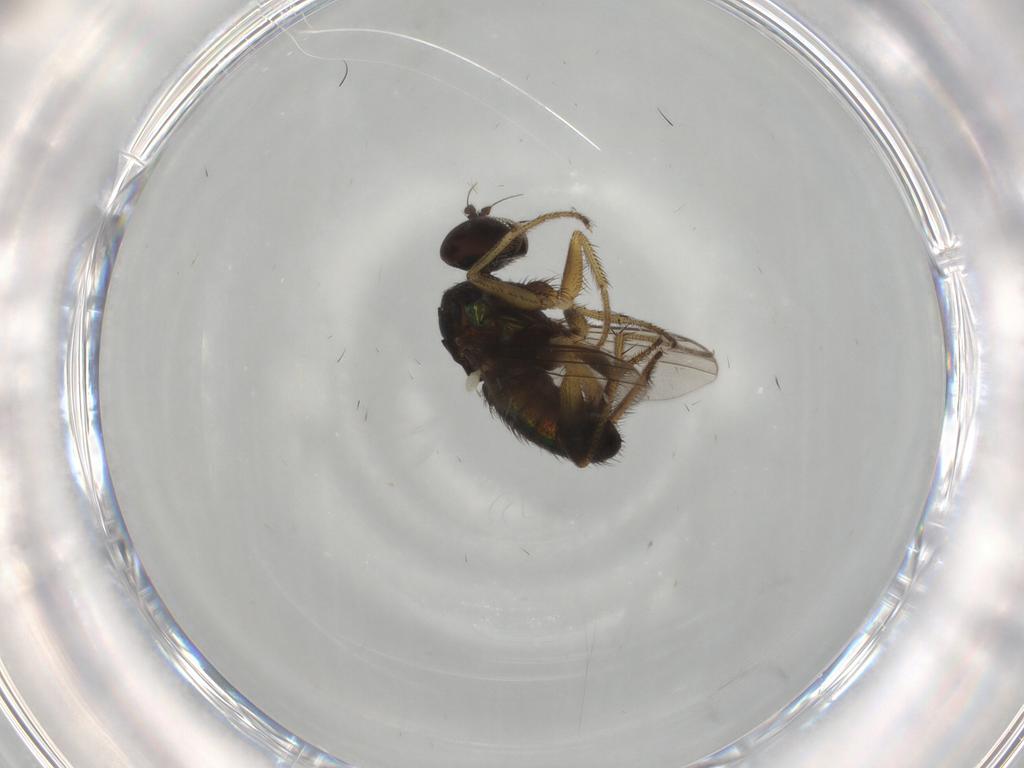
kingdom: Animalia
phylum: Arthropoda
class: Insecta
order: Diptera
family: Dolichopodidae
